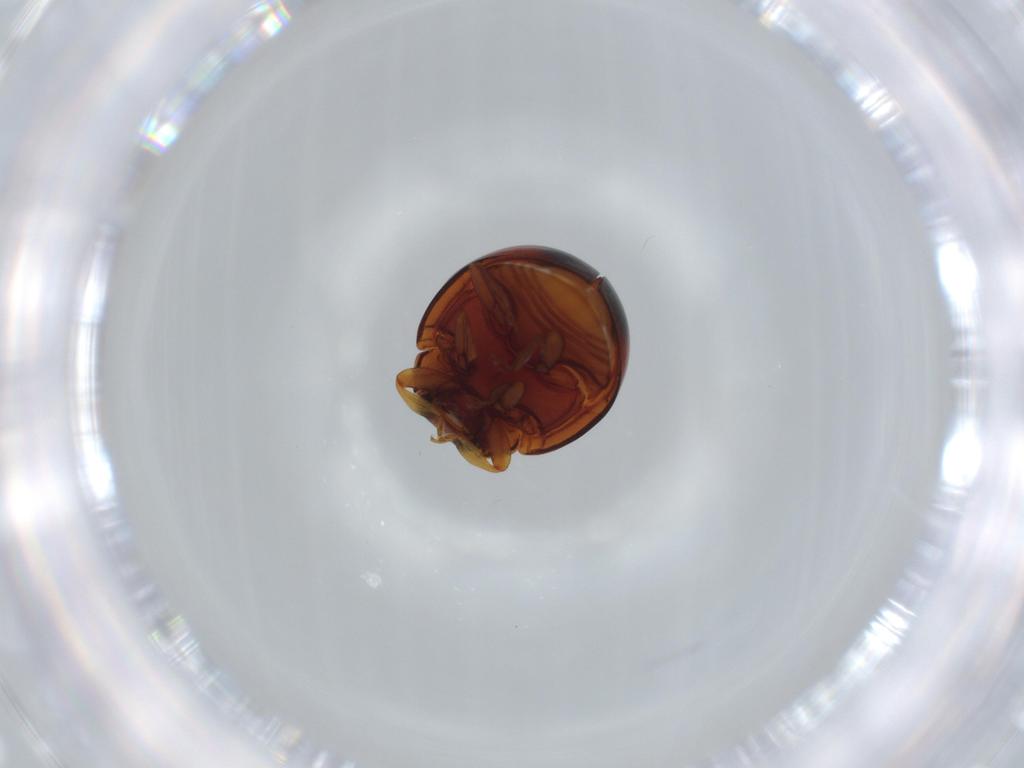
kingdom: Animalia
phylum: Arthropoda
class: Insecta
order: Coleoptera
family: Coccinellidae
